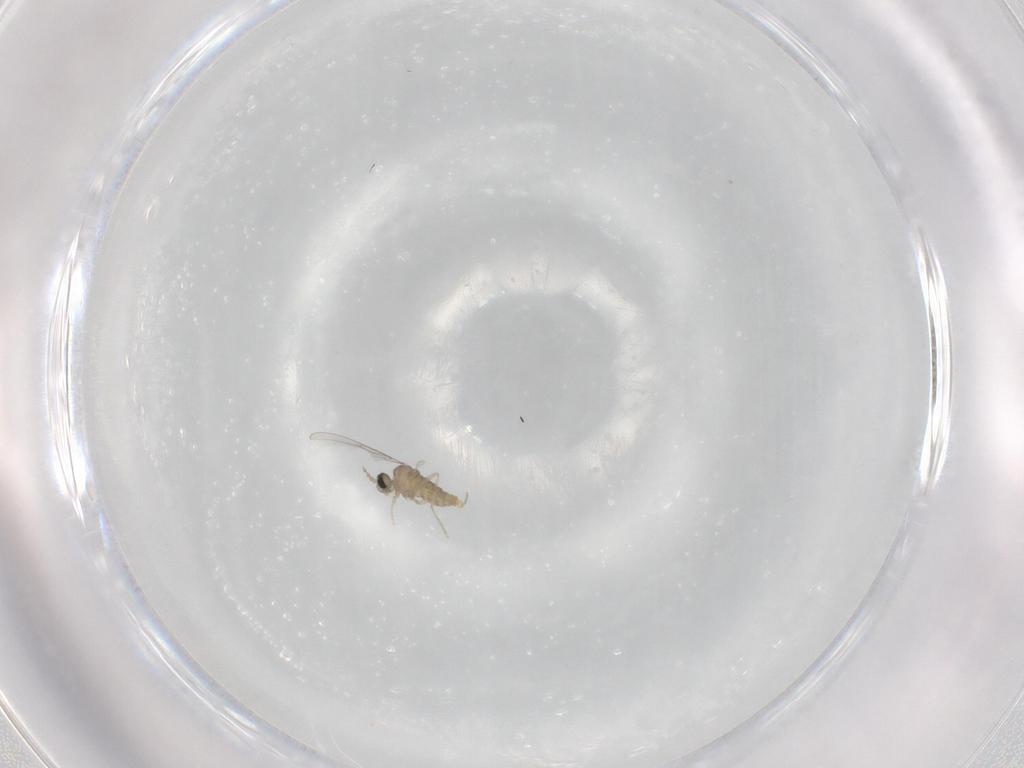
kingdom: Animalia
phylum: Arthropoda
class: Insecta
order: Diptera
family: Cecidomyiidae
